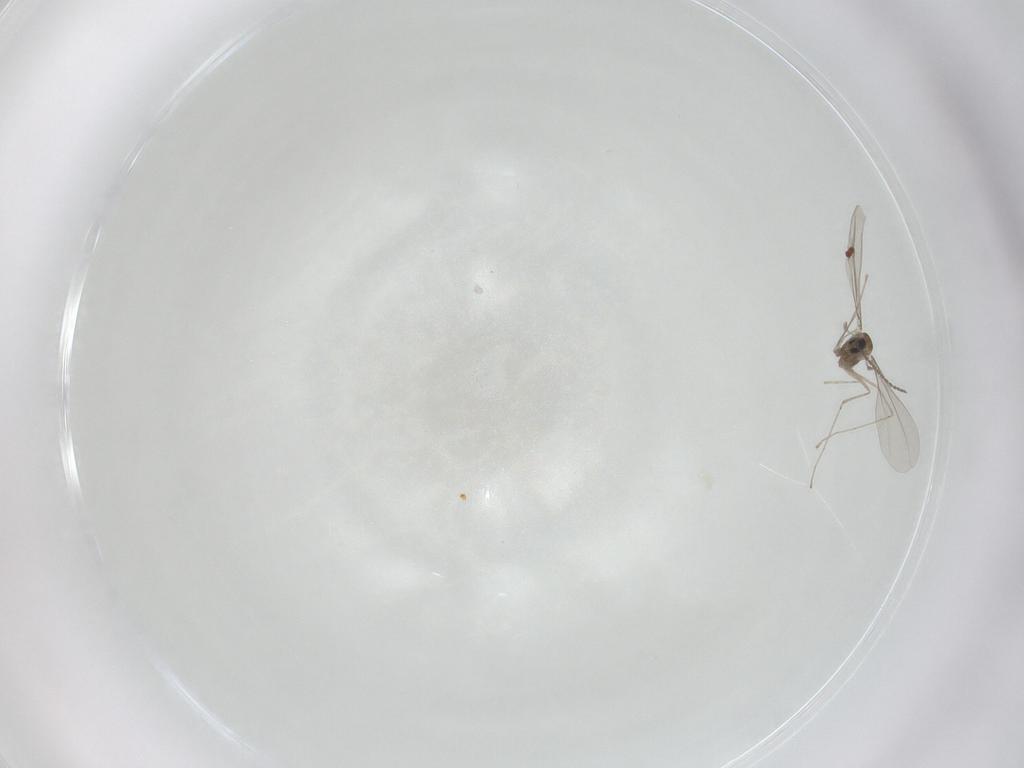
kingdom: Animalia
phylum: Arthropoda
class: Insecta
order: Diptera
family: Cecidomyiidae
